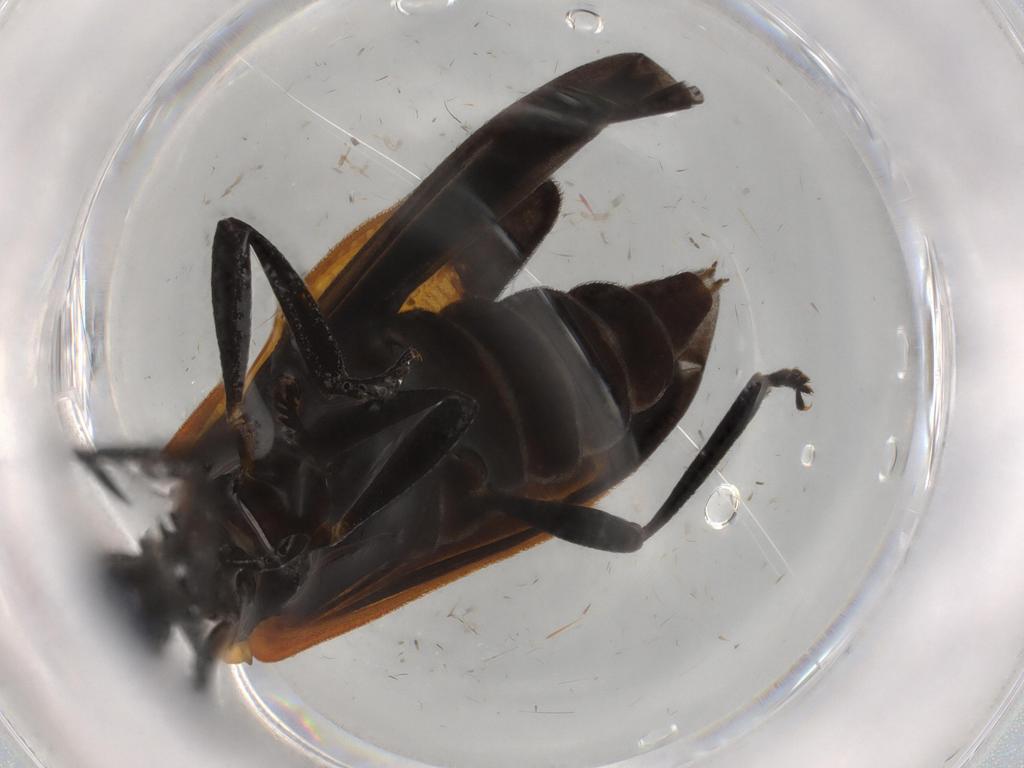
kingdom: Animalia
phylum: Arthropoda
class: Insecta
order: Coleoptera
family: Lycidae
